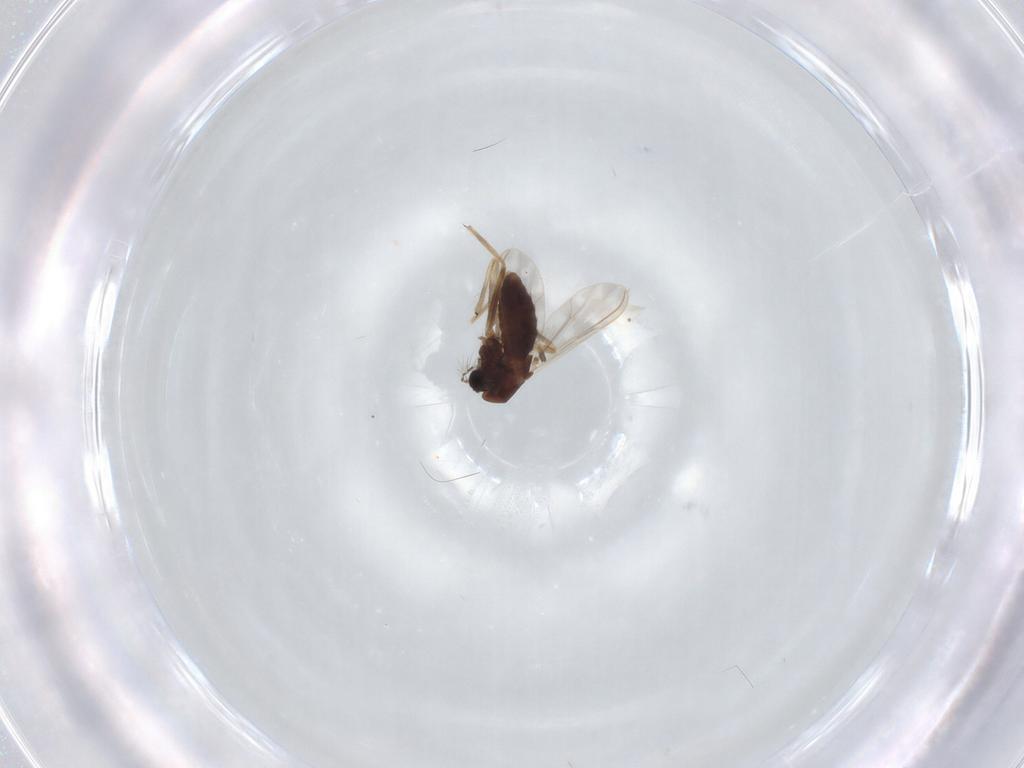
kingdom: Animalia
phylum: Arthropoda
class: Insecta
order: Diptera
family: Chironomidae
